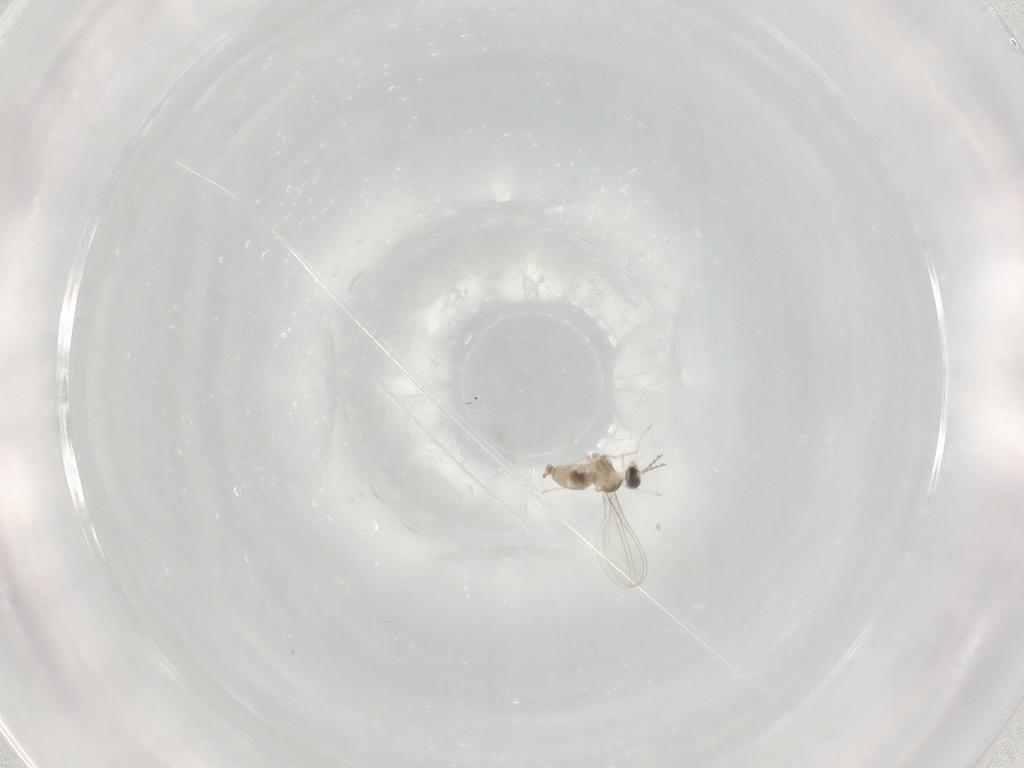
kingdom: Animalia
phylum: Arthropoda
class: Insecta
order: Diptera
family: Cecidomyiidae
